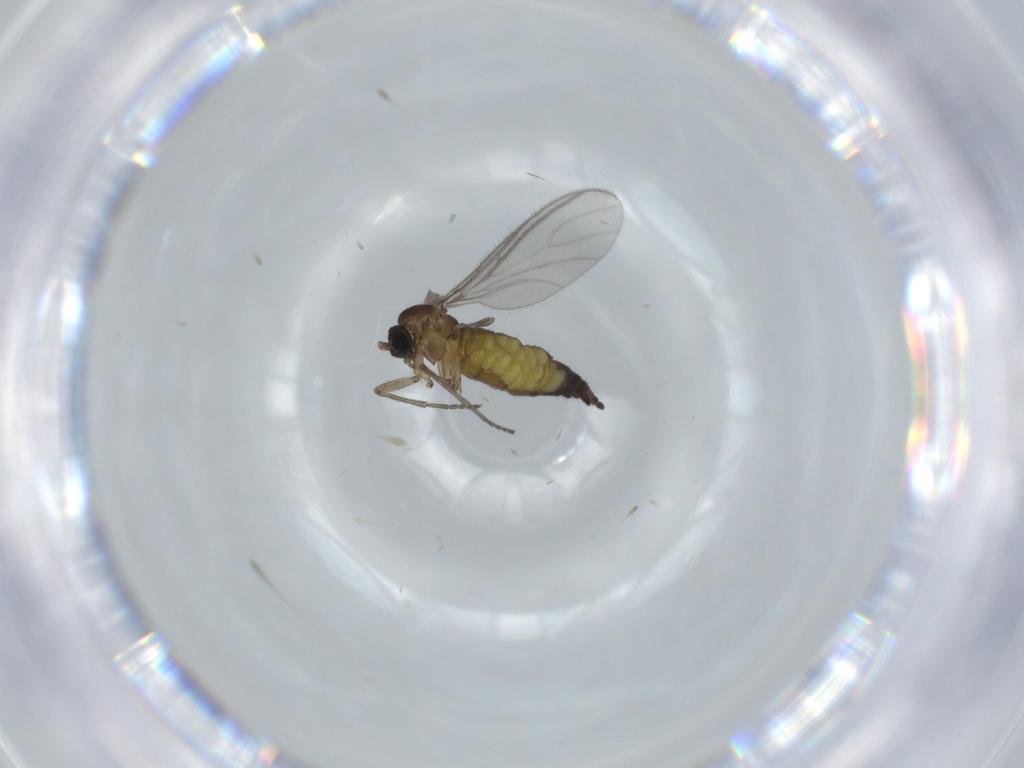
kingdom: Animalia
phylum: Arthropoda
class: Insecta
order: Diptera
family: Sciaridae
